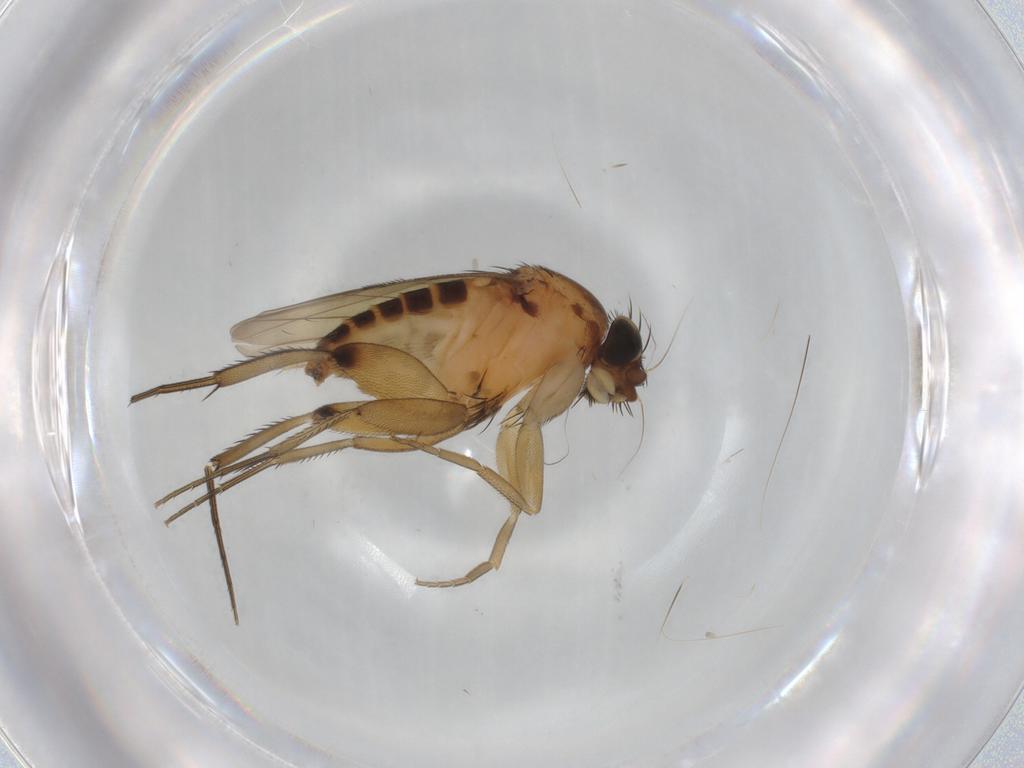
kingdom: Animalia
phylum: Arthropoda
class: Insecta
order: Diptera
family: Phoridae
